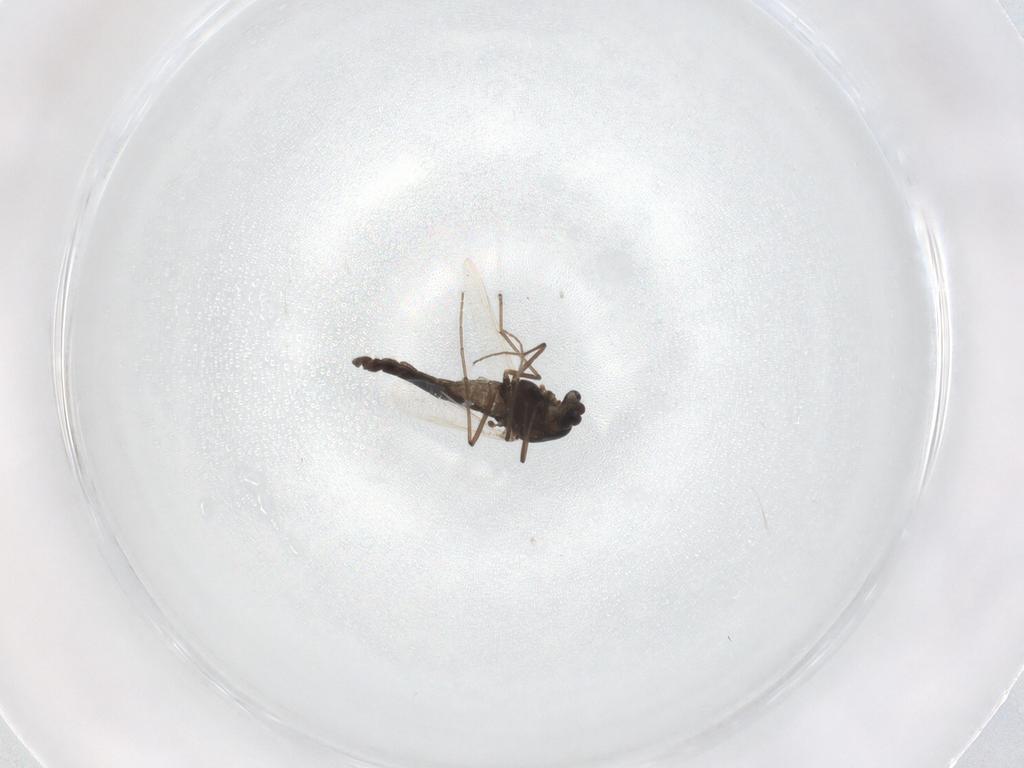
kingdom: Animalia
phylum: Arthropoda
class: Insecta
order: Diptera
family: Chironomidae
